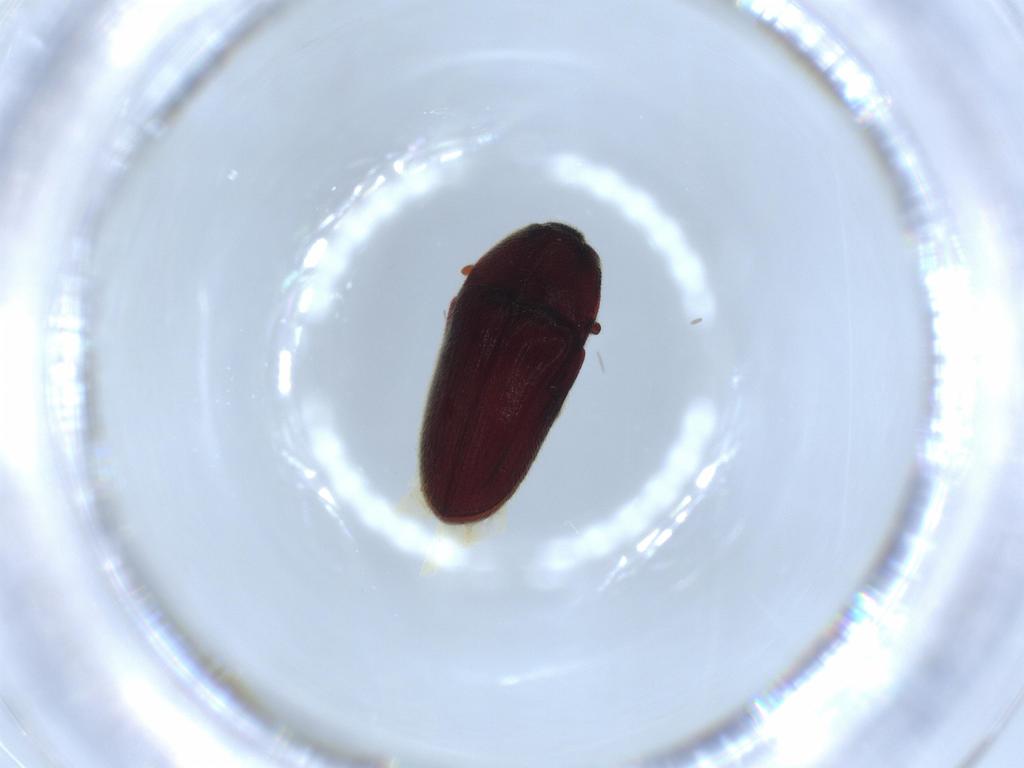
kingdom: Animalia
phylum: Arthropoda
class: Insecta
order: Coleoptera
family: Throscidae
